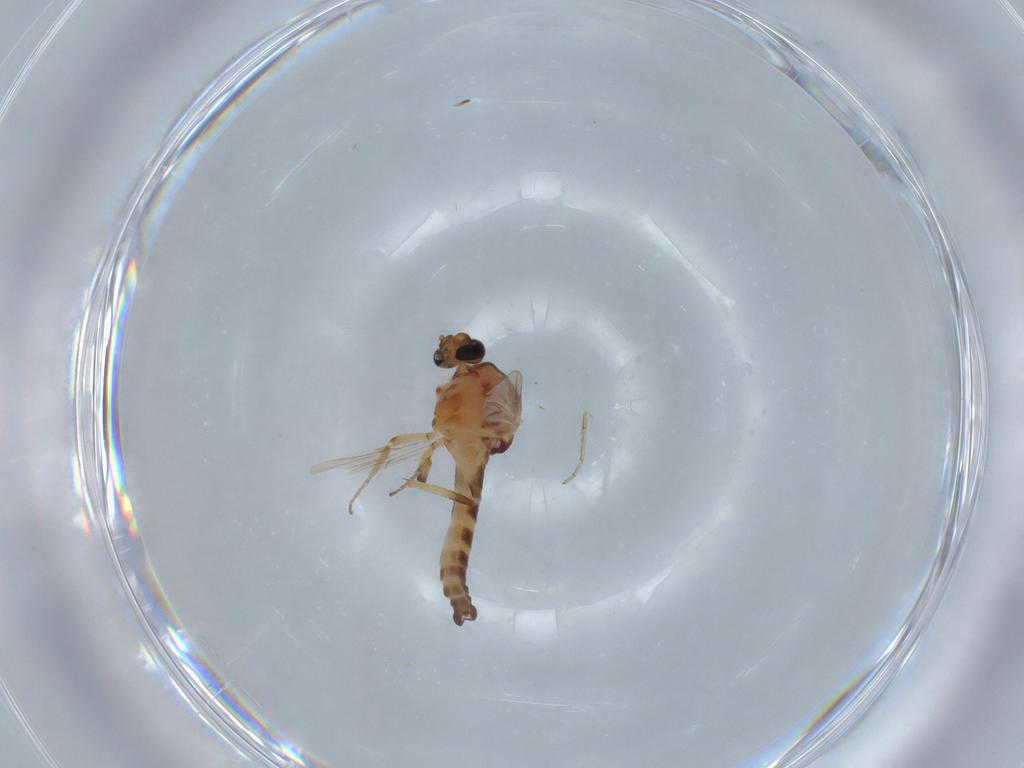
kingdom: Animalia
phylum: Arthropoda
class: Insecta
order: Diptera
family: Ceratopogonidae
